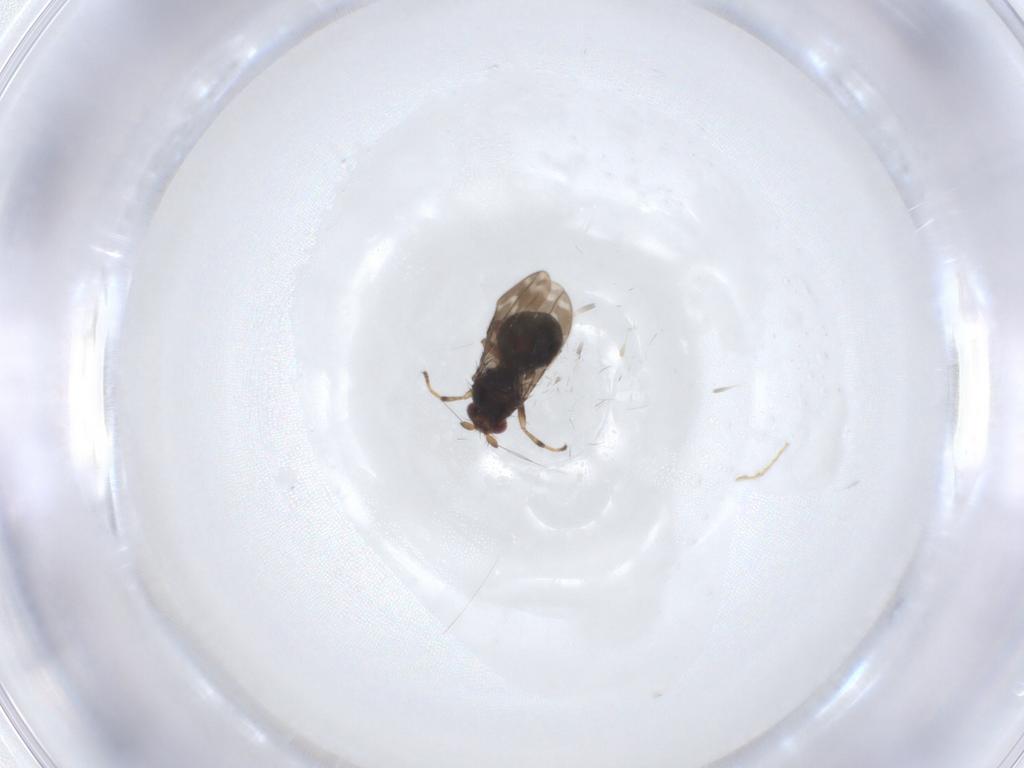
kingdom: Animalia
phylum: Arthropoda
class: Insecta
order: Diptera
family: Sphaeroceridae
